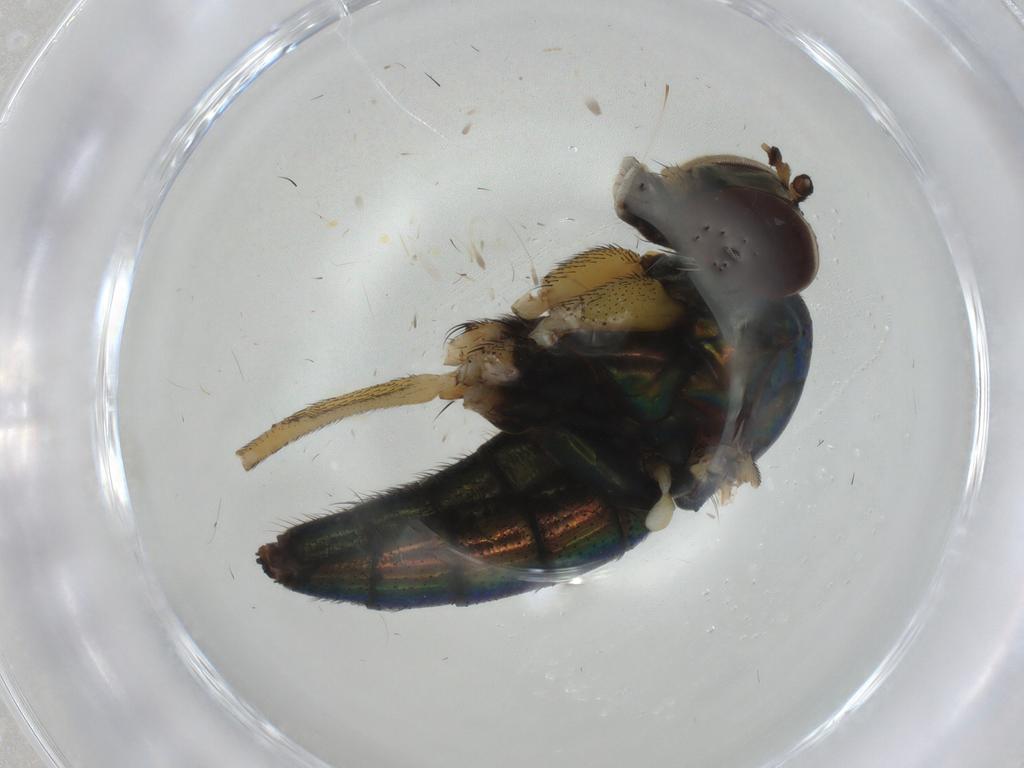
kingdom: Animalia
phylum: Arthropoda
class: Insecta
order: Diptera
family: Sciaridae
